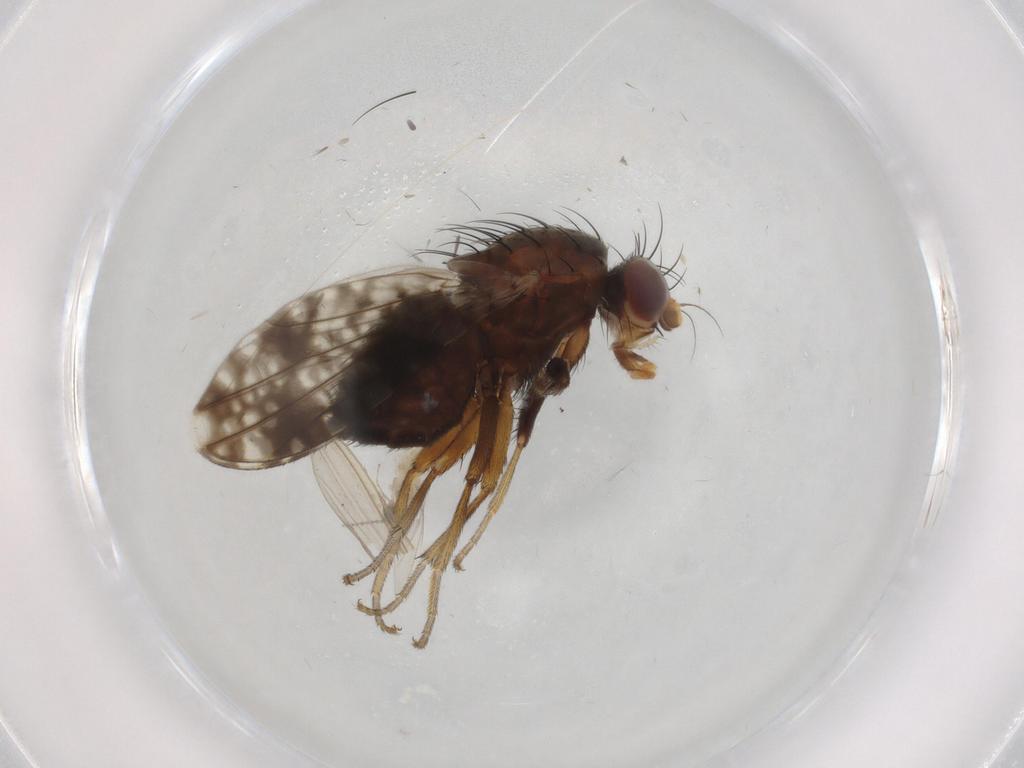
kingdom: Animalia
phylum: Arthropoda
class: Insecta
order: Diptera
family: Tephritidae
